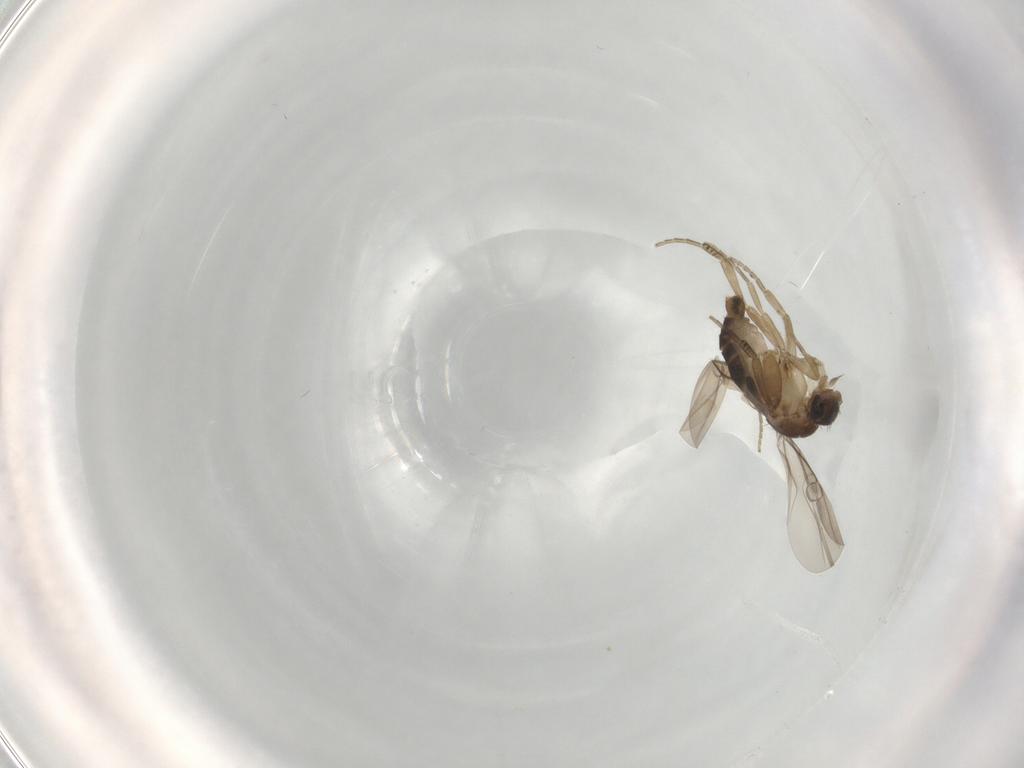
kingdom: Animalia
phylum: Arthropoda
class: Insecta
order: Diptera
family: Phoridae
